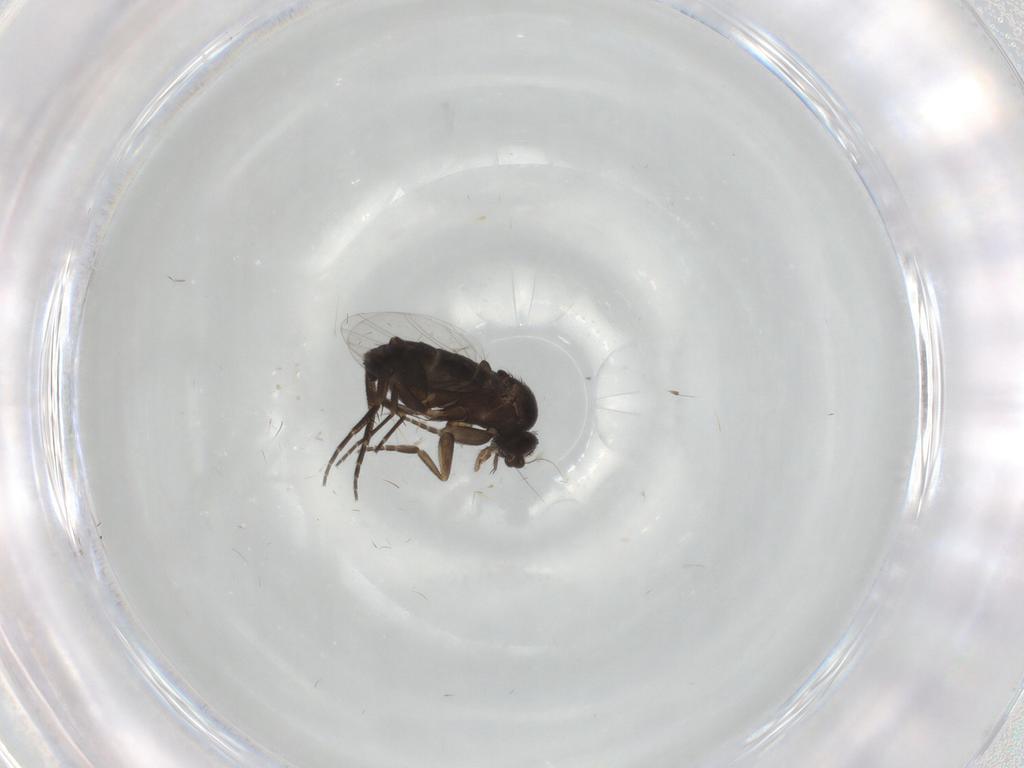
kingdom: Animalia
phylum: Arthropoda
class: Insecta
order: Diptera
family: Phoridae
